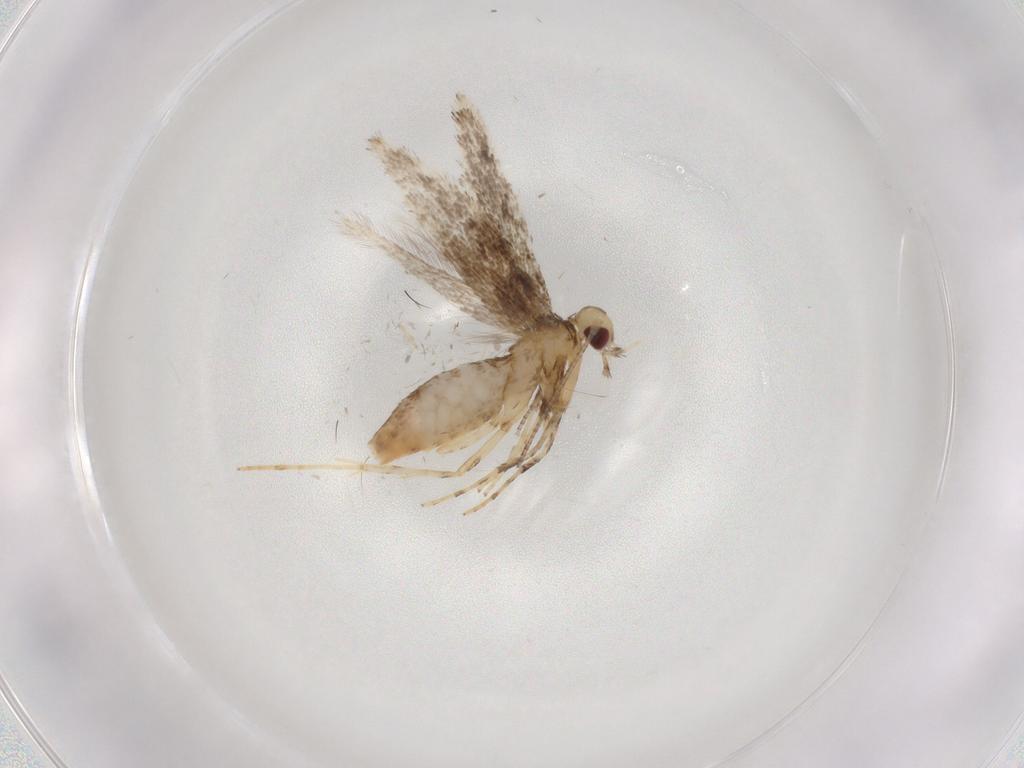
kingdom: Animalia
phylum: Arthropoda
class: Insecta
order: Lepidoptera
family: Gracillariidae
